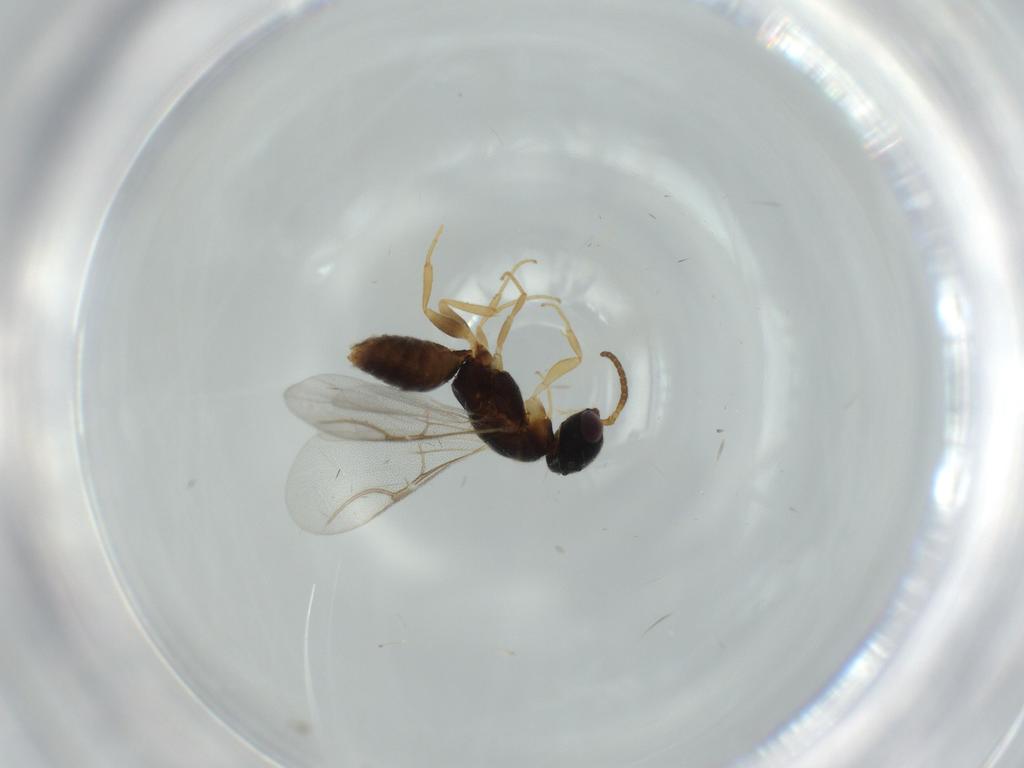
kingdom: Animalia
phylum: Arthropoda
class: Insecta
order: Hymenoptera
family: Bethylidae
